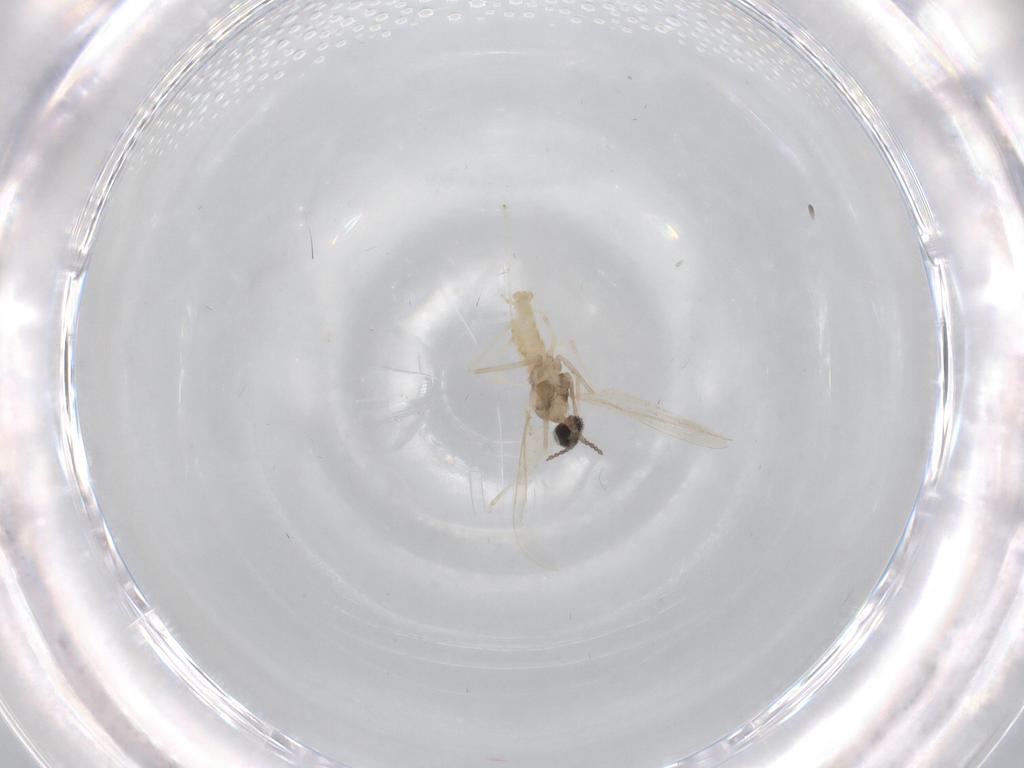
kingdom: Animalia
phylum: Arthropoda
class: Insecta
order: Diptera
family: Cecidomyiidae
